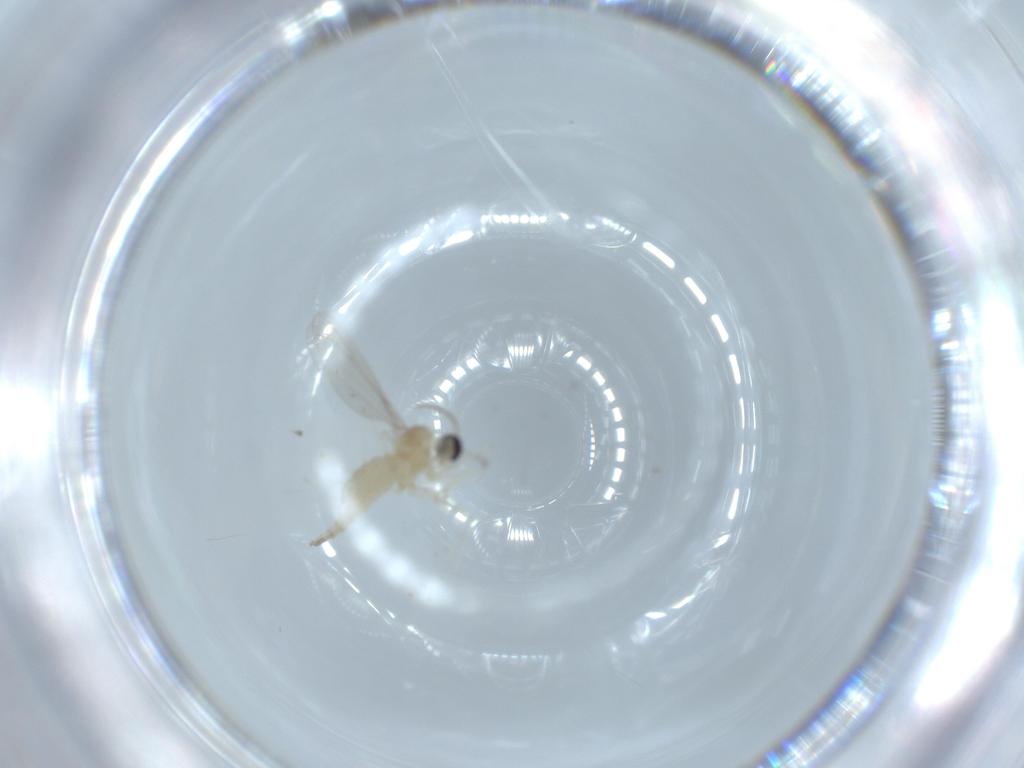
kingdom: Animalia
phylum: Arthropoda
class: Insecta
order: Diptera
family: Cecidomyiidae
